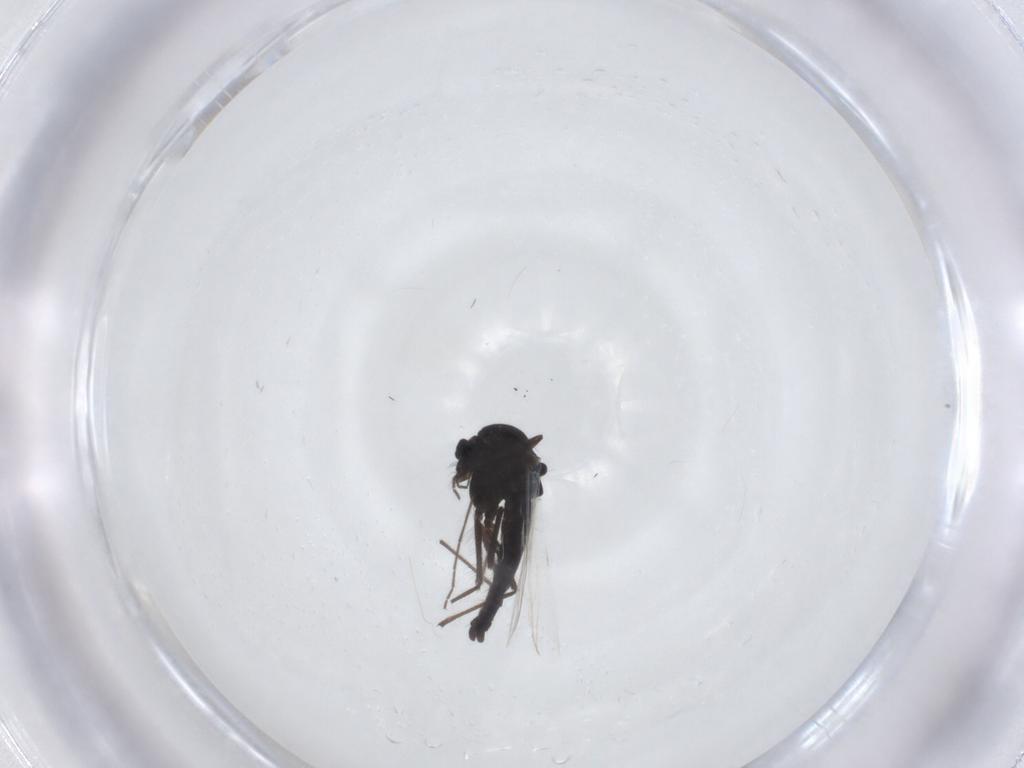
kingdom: Animalia
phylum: Arthropoda
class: Insecta
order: Diptera
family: Chironomidae
